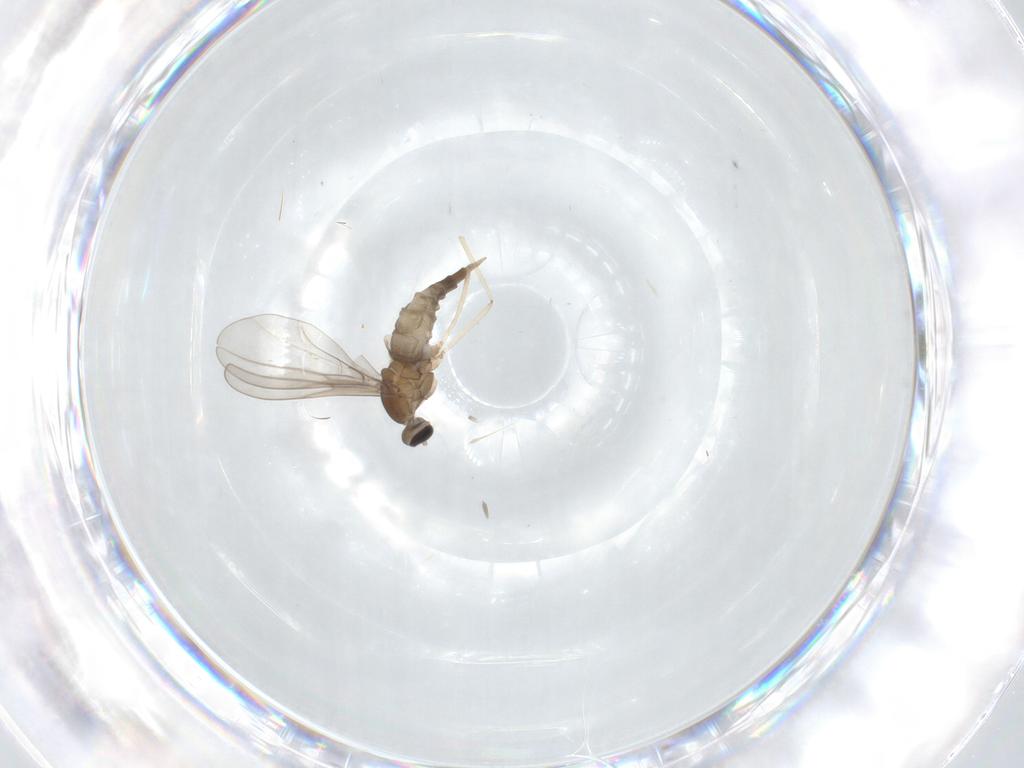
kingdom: Animalia
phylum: Arthropoda
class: Insecta
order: Diptera
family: Cecidomyiidae
